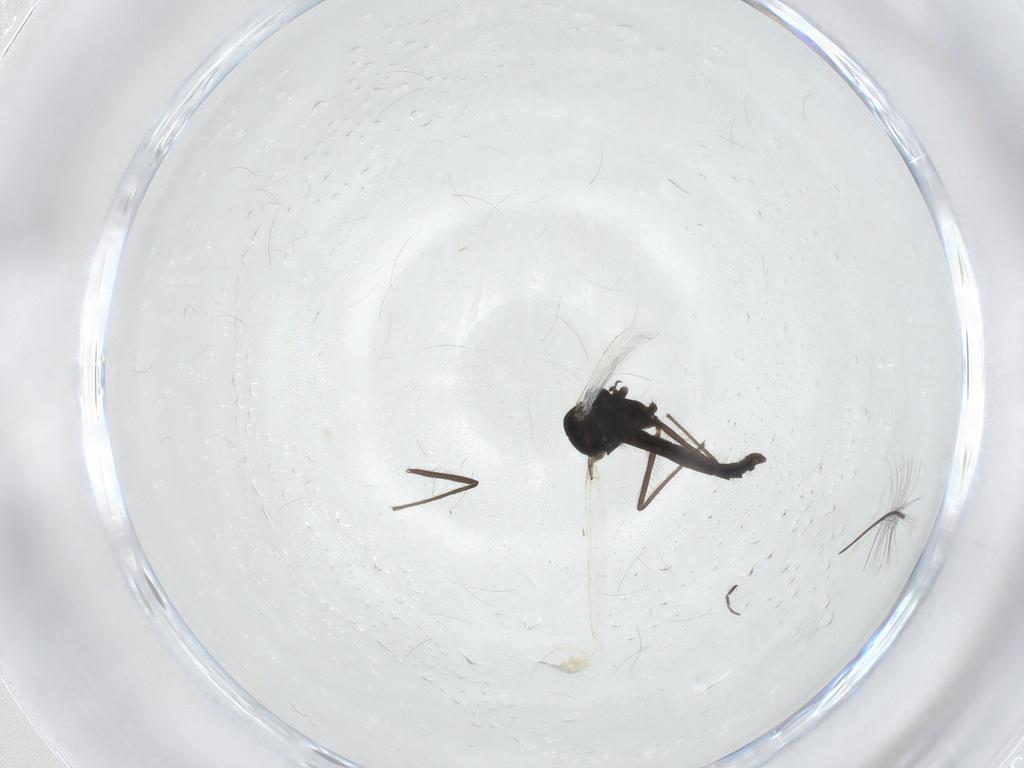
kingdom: Animalia
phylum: Arthropoda
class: Insecta
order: Diptera
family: Chironomidae
